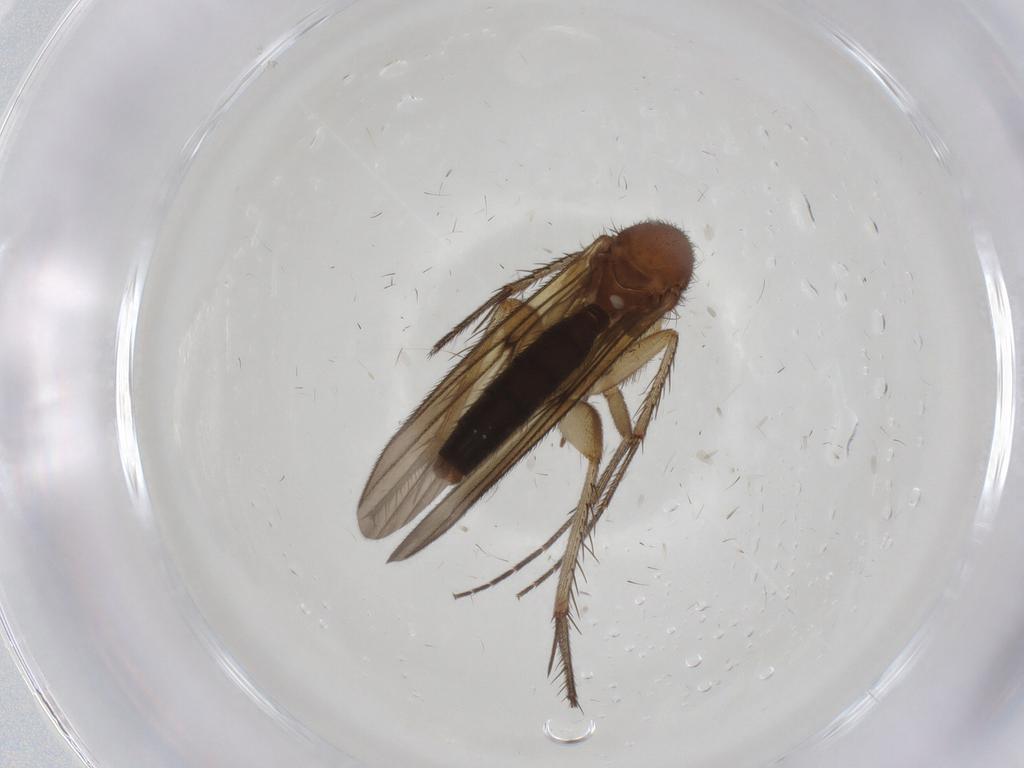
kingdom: Animalia
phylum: Arthropoda
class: Insecta
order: Diptera
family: Mycetophilidae
